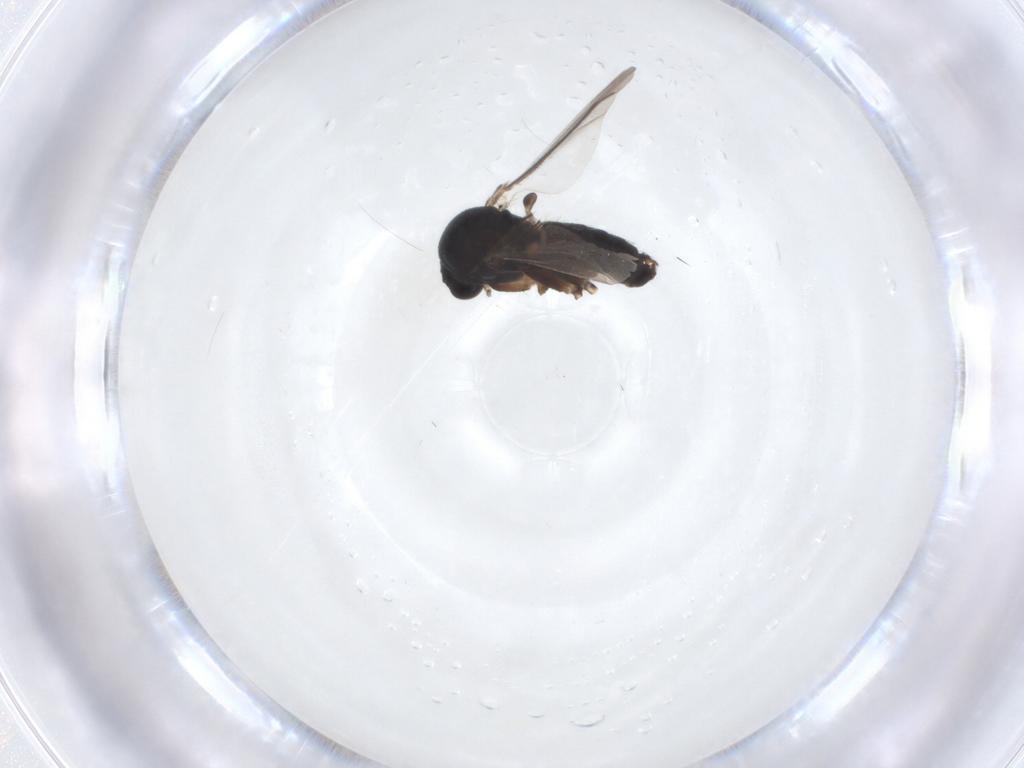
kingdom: Animalia
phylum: Arthropoda
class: Insecta
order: Diptera
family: Mycetophilidae
